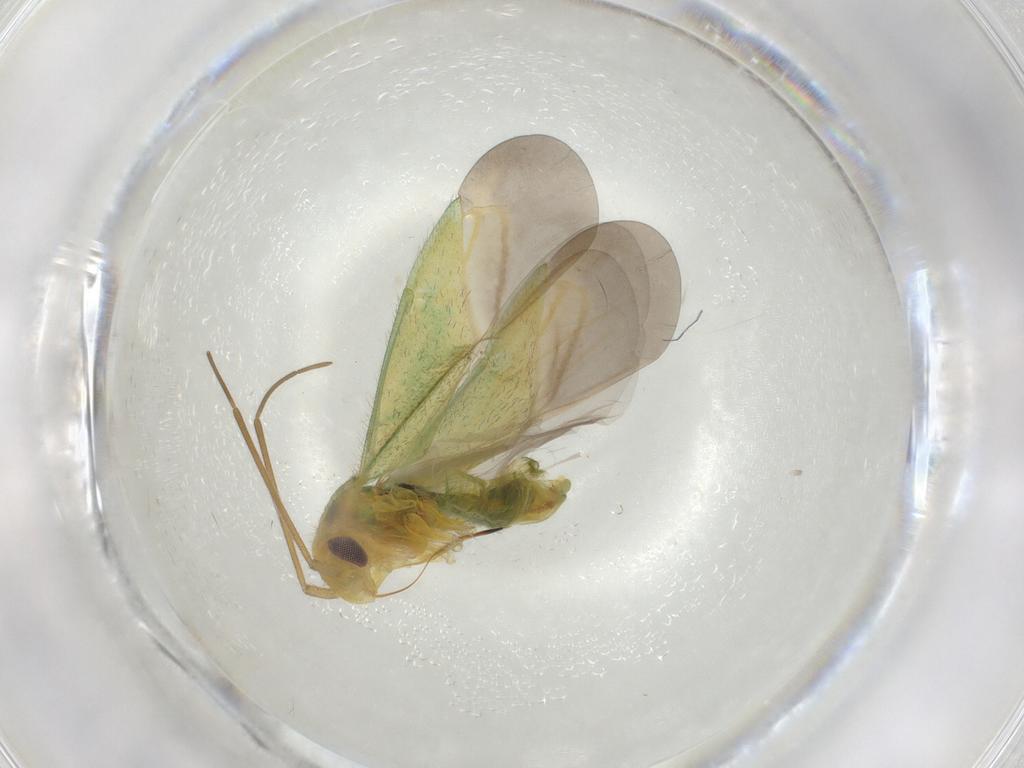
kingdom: Animalia
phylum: Arthropoda
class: Insecta
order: Hemiptera
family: Miridae
